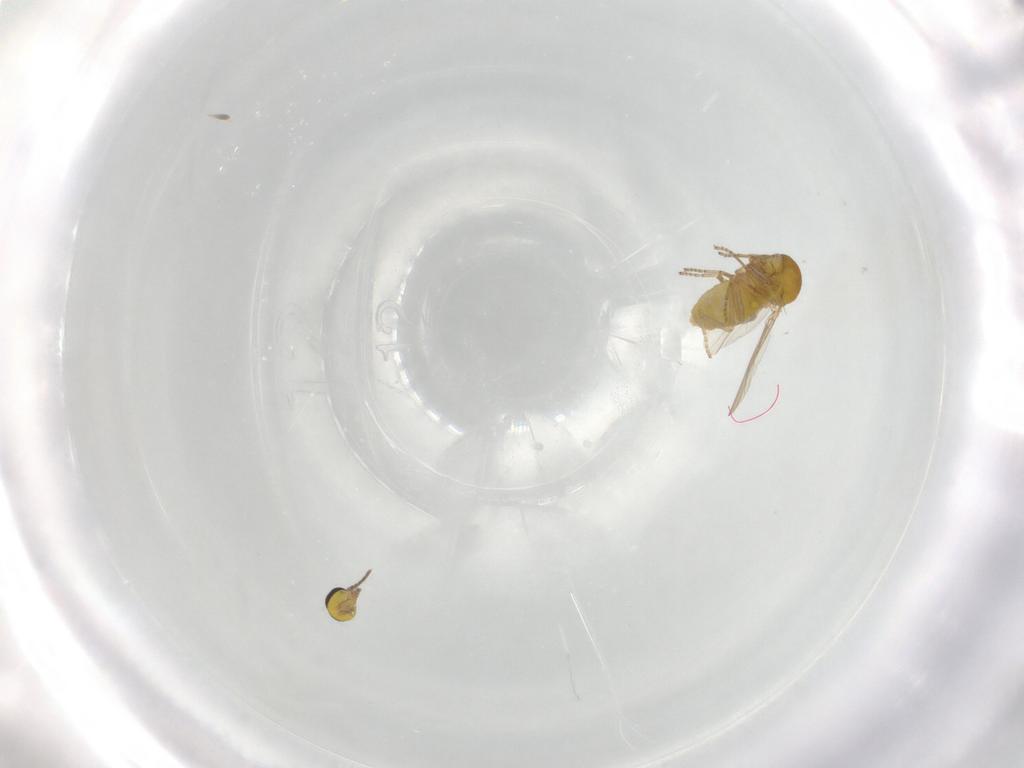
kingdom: Animalia
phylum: Arthropoda
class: Insecta
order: Diptera
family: Ceratopogonidae
